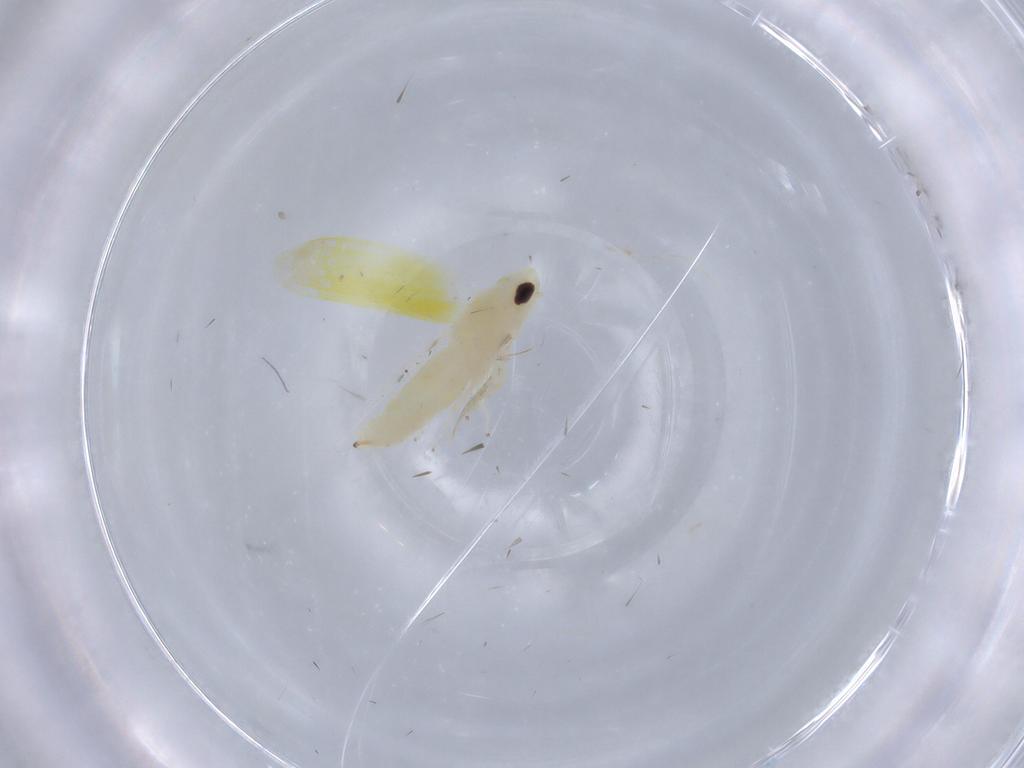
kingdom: Animalia
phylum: Arthropoda
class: Insecta
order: Hemiptera
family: Cicadellidae
